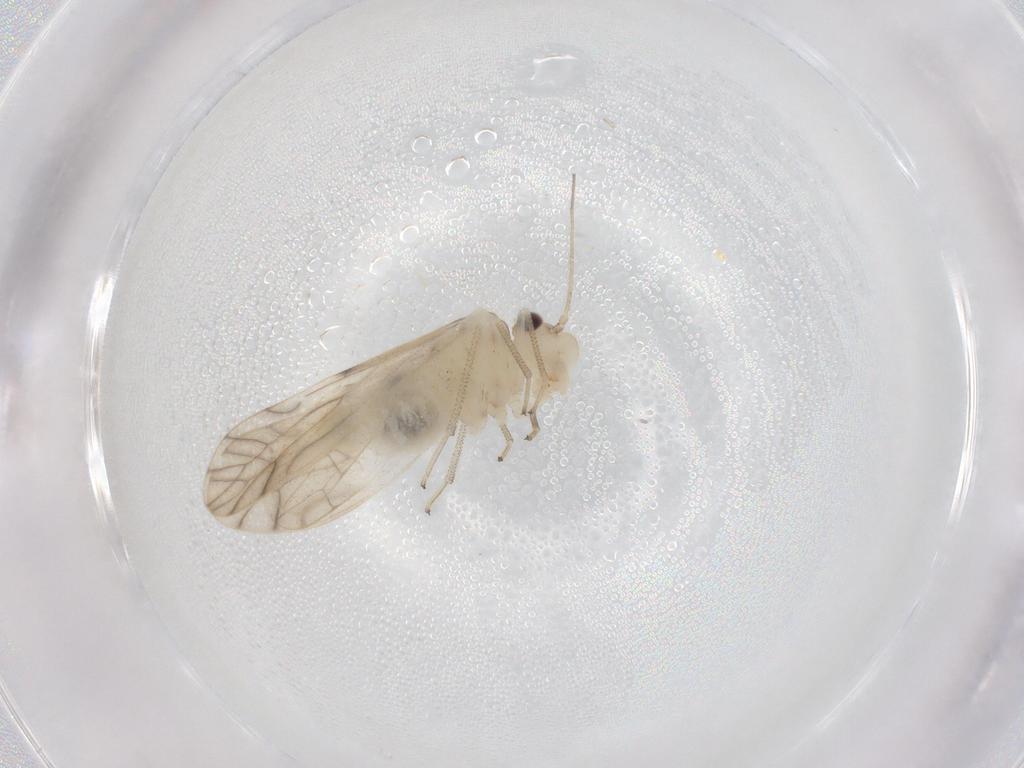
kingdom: Animalia
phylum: Arthropoda
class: Insecta
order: Psocodea
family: Caeciliusidae
